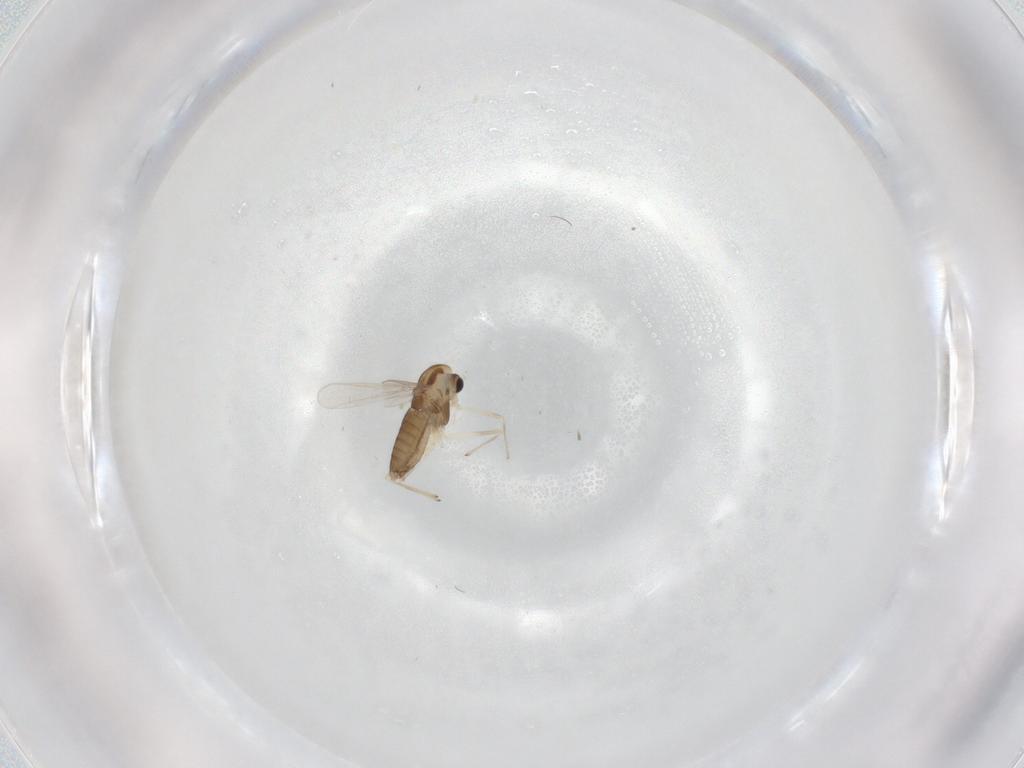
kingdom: Animalia
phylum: Arthropoda
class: Insecta
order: Diptera
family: Chironomidae
